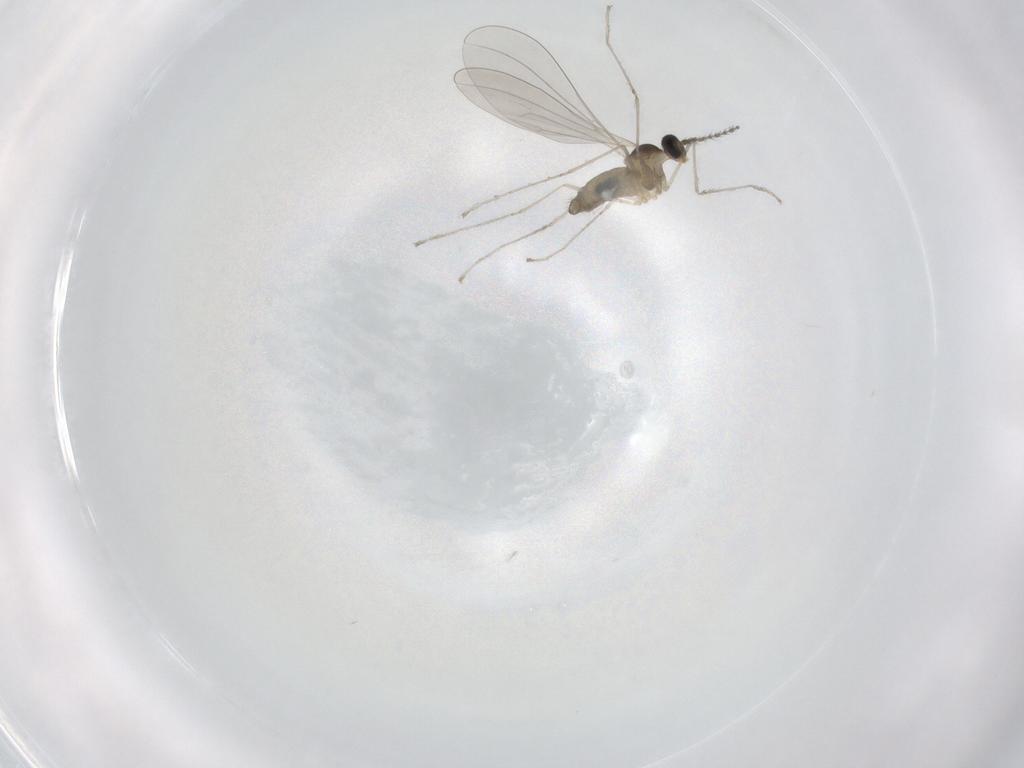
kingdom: Animalia
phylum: Arthropoda
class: Insecta
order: Diptera
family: Cecidomyiidae
